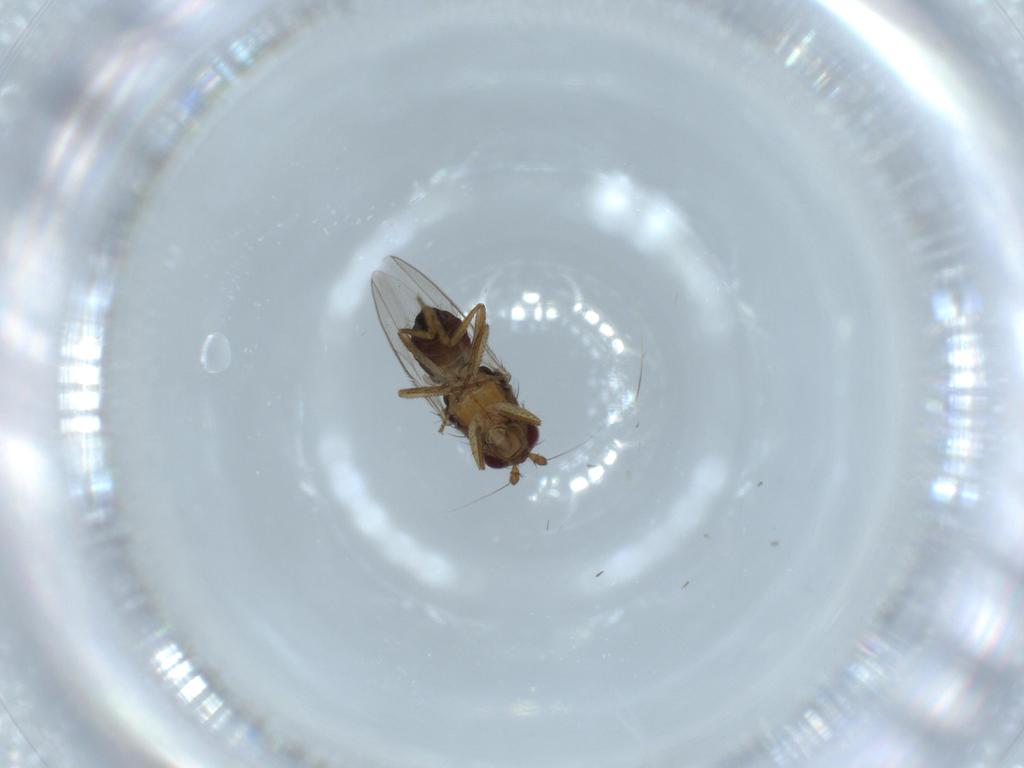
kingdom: Animalia
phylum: Arthropoda
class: Insecta
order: Diptera
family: Sphaeroceridae
